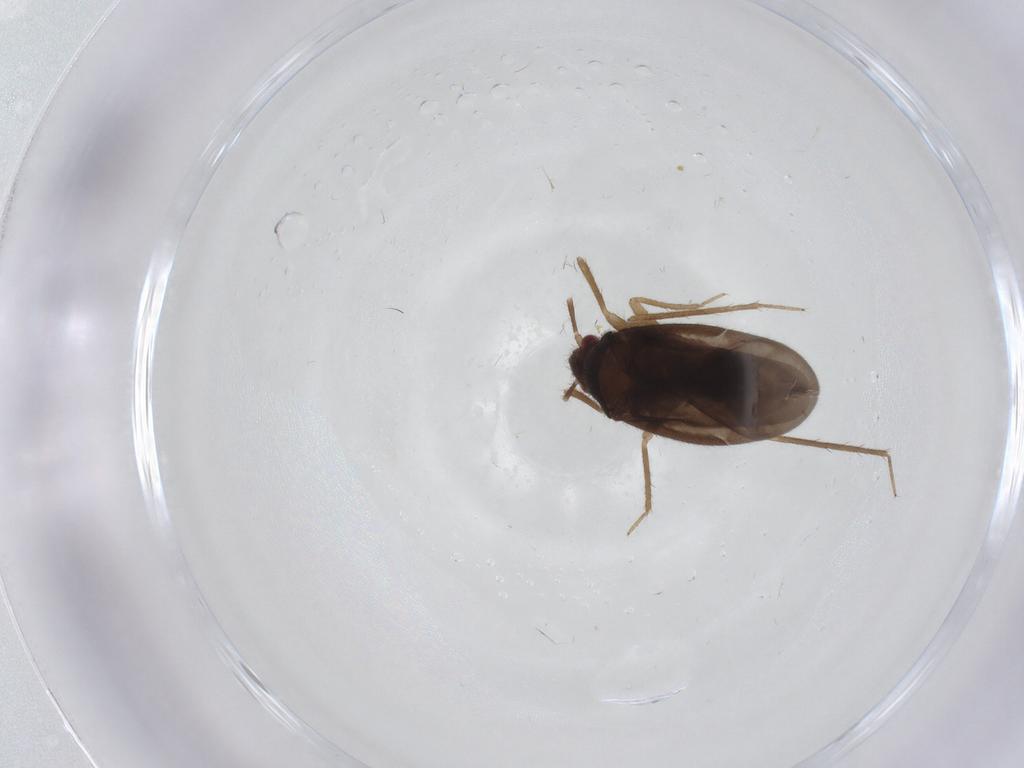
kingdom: Animalia
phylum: Arthropoda
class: Insecta
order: Hemiptera
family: Ceratocombidae
